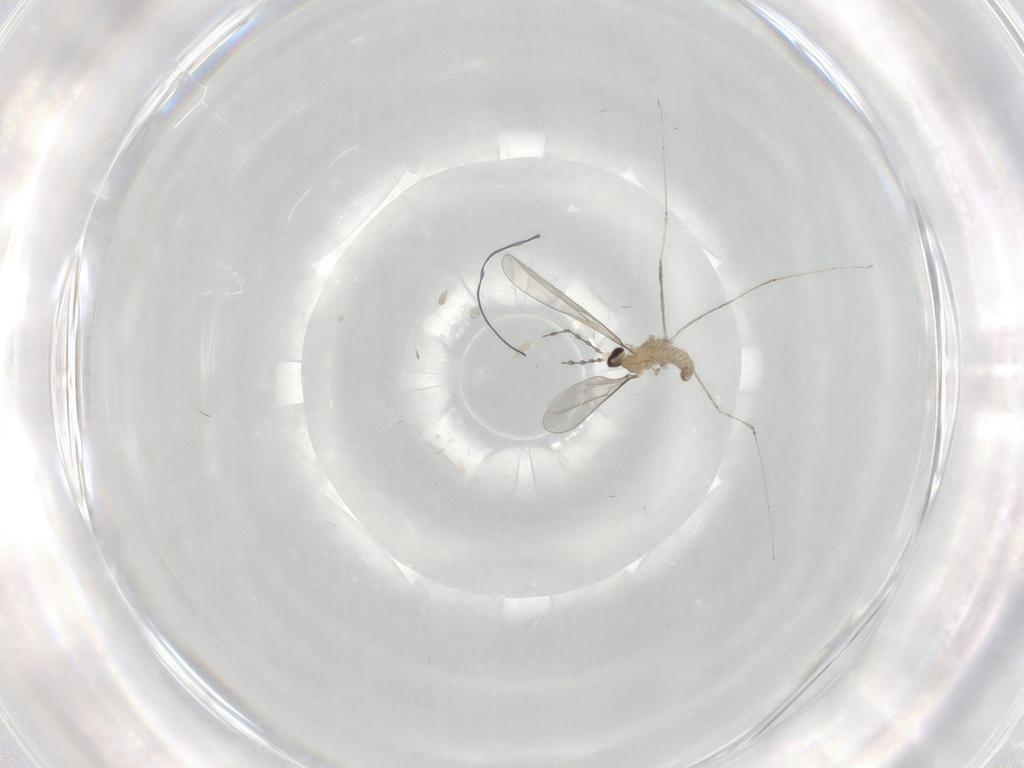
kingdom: Animalia
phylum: Arthropoda
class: Insecta
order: Diptera
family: Cecidomyiidae
